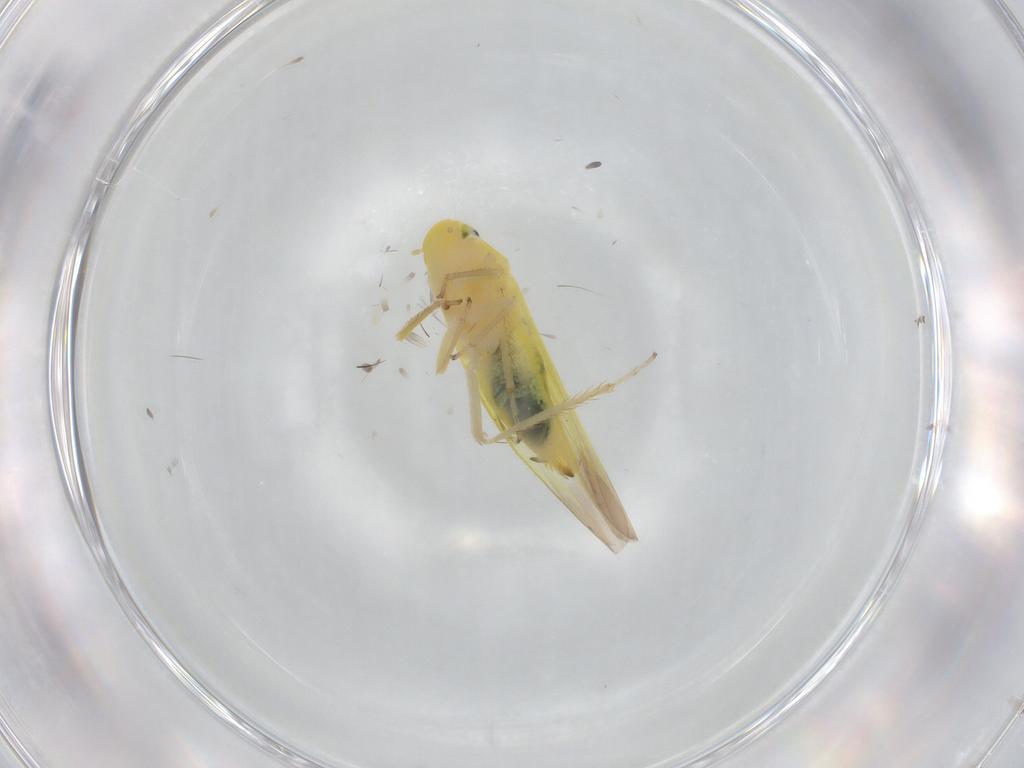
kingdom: Animalia
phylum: Arthropoda
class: Insecta
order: Hemiptera
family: Cicadellidae
